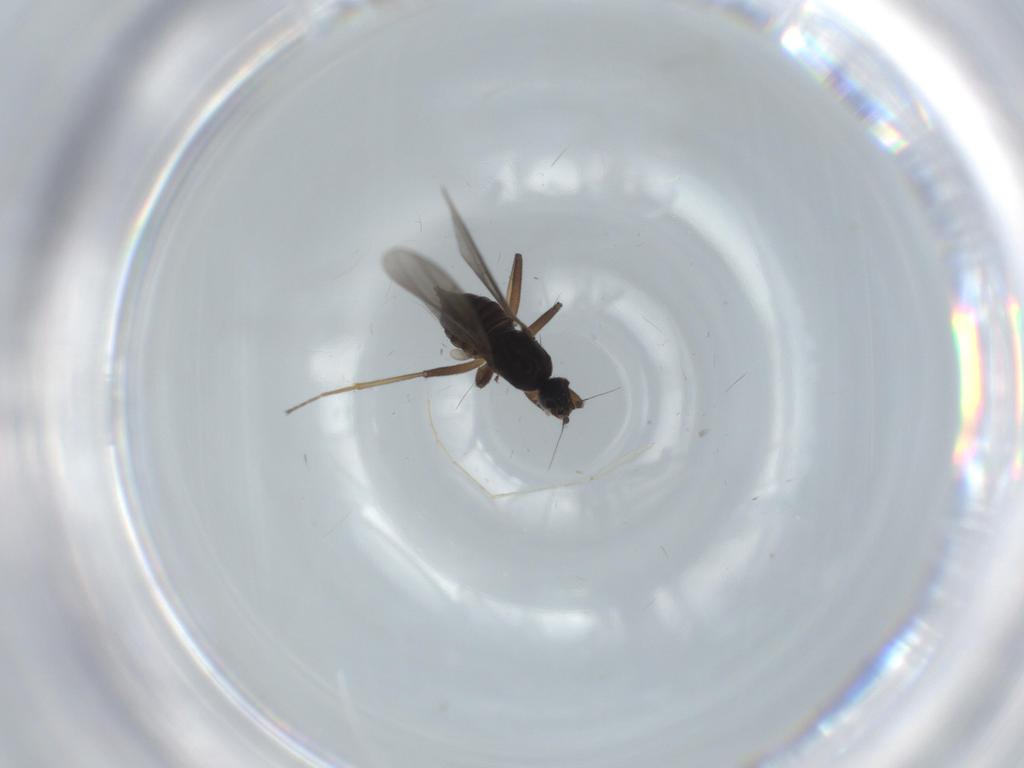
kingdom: Animalia
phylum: Arthropoda
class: Insecta
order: Diptera
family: Hybotidae
